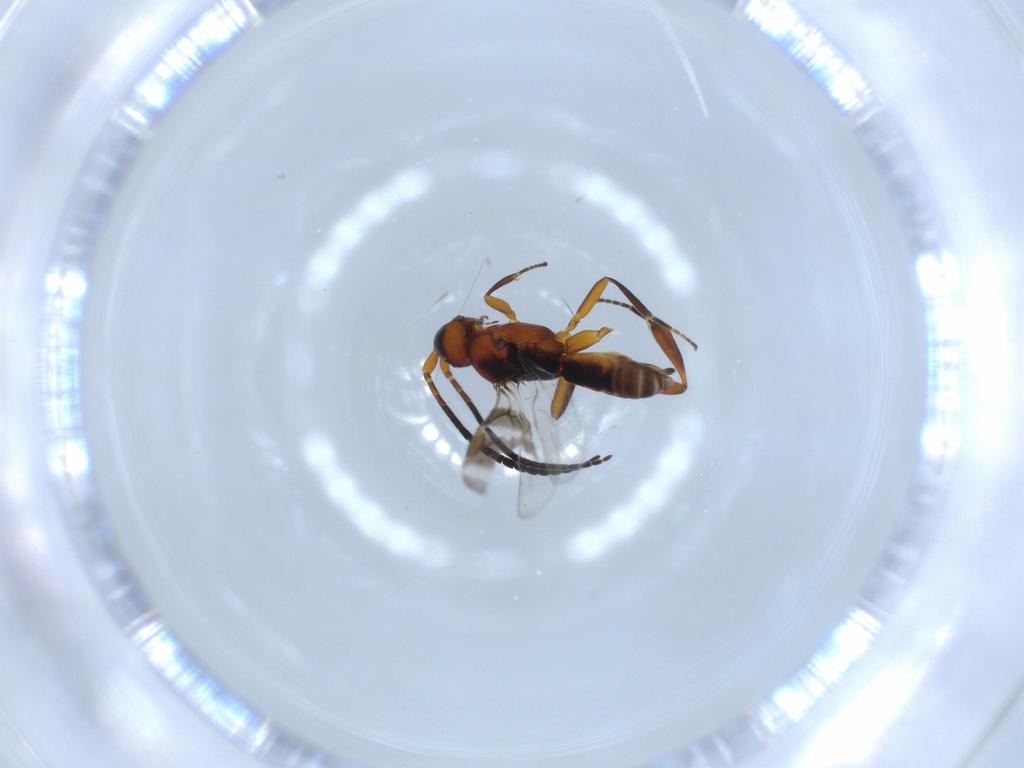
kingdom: Animalia
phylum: Arthropoda
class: Insecta
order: Hymenoptera
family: Braconidae
